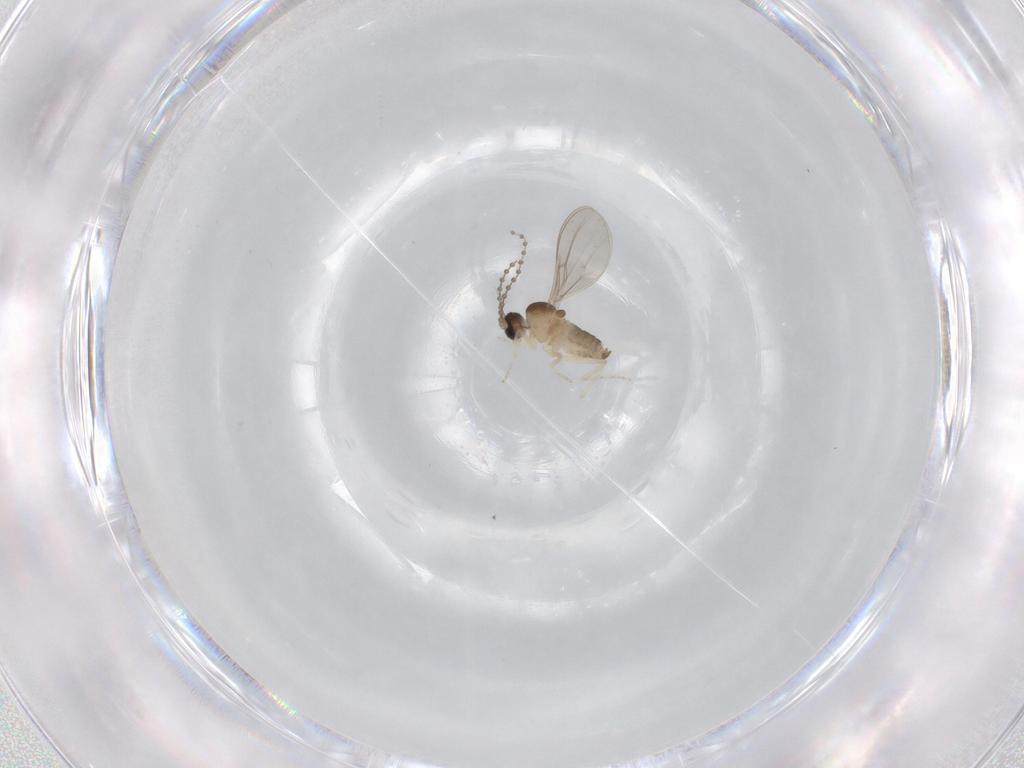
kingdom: Animalia
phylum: Arthropoda
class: Insecta
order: Diptera
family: Cecidomyiidae
